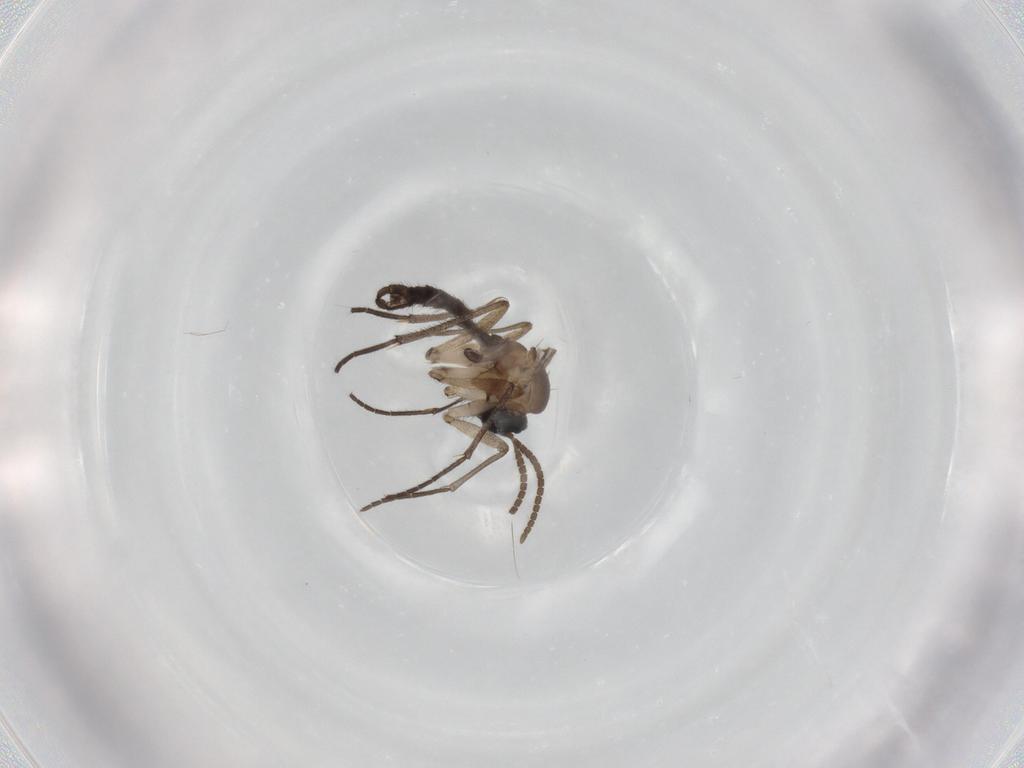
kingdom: Animalia
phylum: Arthropoda
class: Insecta
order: Diptera
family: Sciaridae
